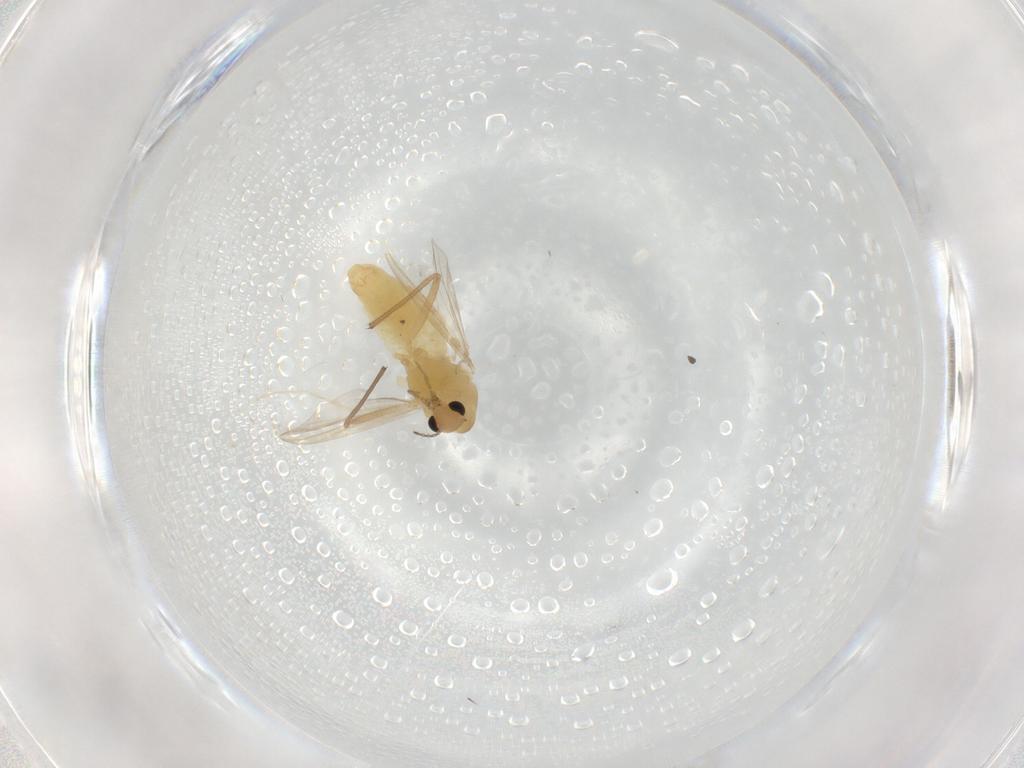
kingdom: Animalia
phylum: Arthropoda
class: Insecta
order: Diptera
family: Chironomidae
